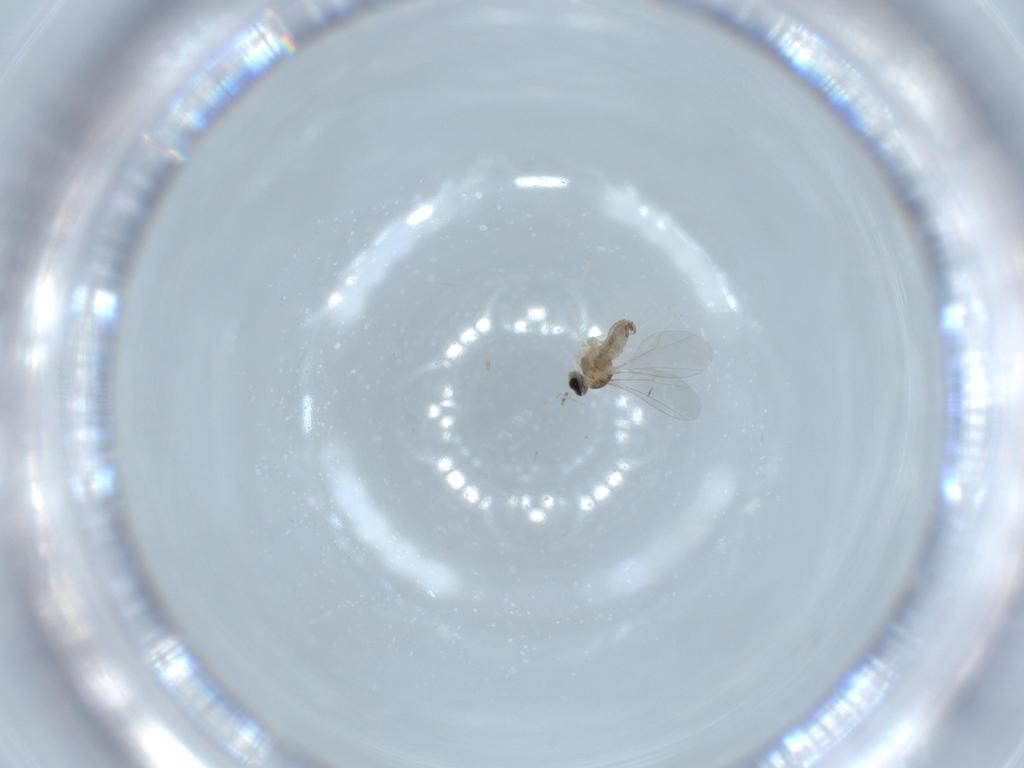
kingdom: Animalia
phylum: Arthropoda
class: Insecta
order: Diptera
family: Cecidomyiidae
